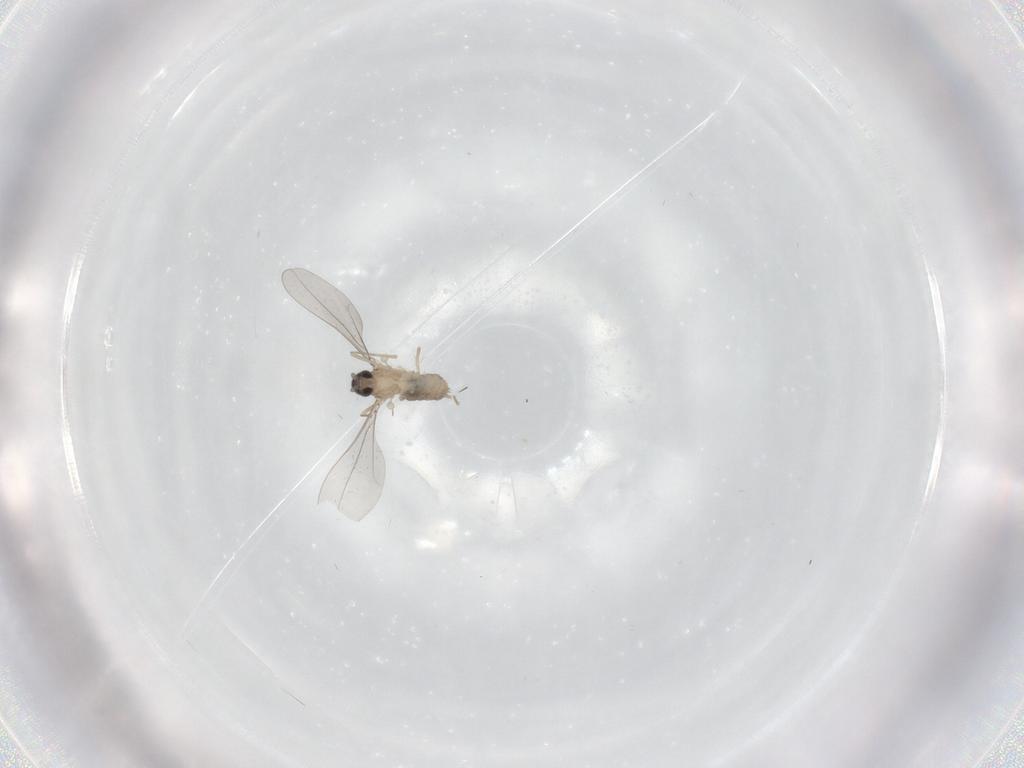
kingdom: Animalia
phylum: Arthropoda
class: Insecta
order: Diptera
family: Cecidomyiidae
